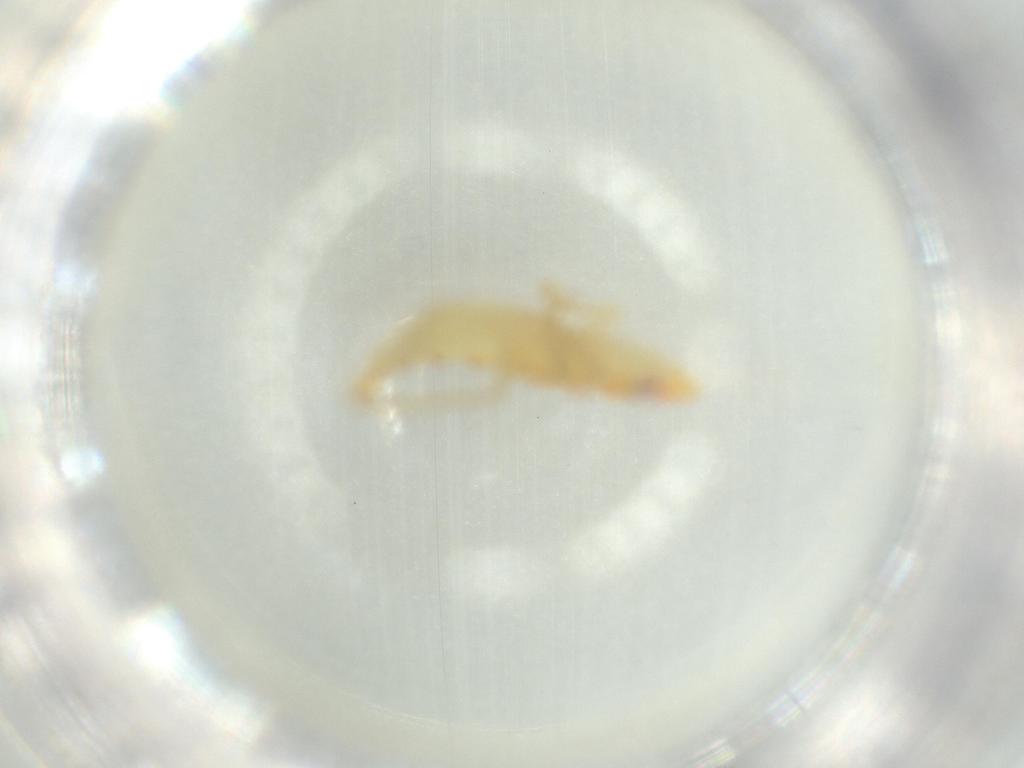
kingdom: Animalia
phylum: Arthropoda
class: Insecta
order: Hemiptera
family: Tropiduchidae
